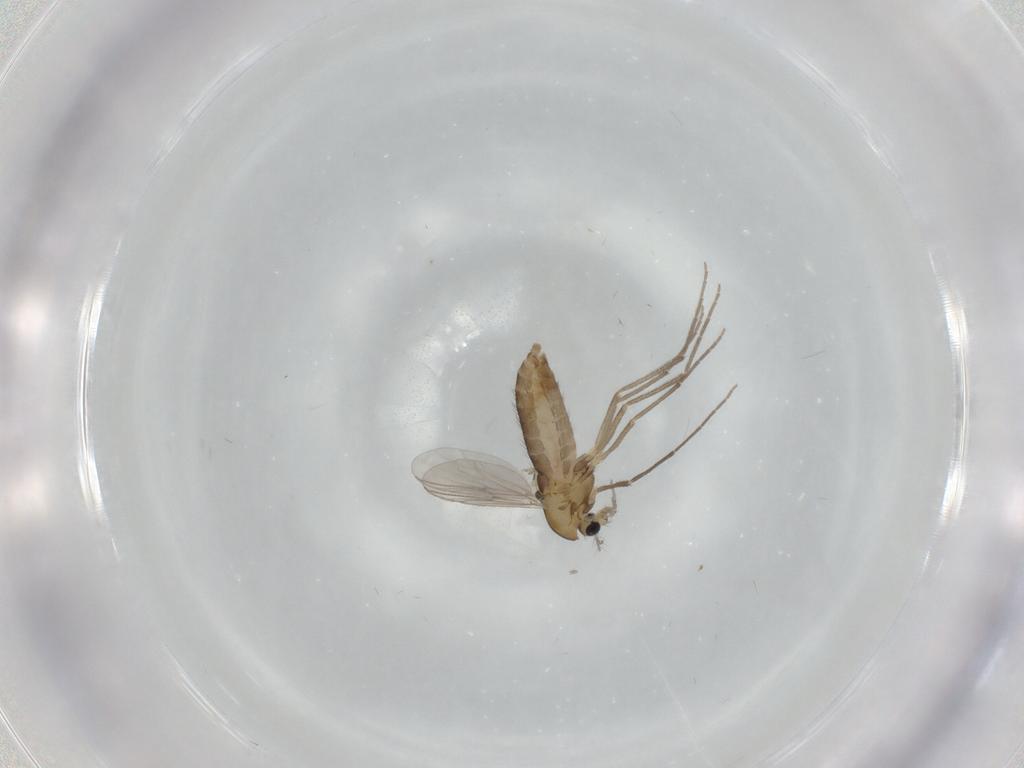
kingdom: Animalia
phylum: Arthropoda
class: Insecta
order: Diptera
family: Chironomidae
